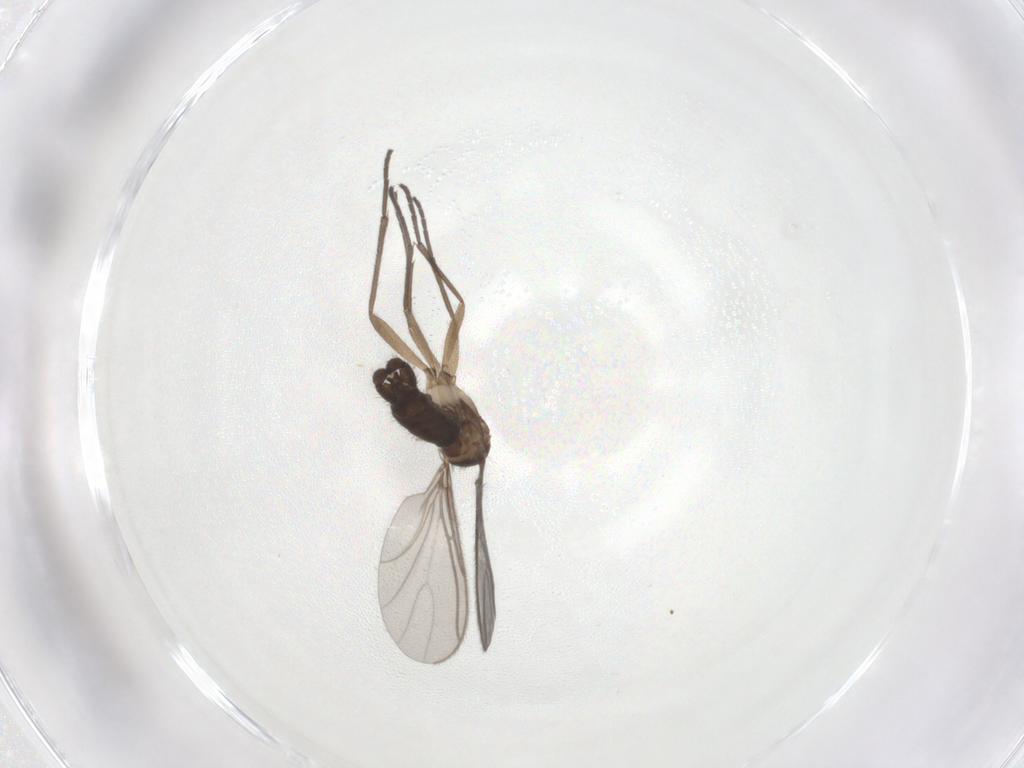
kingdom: Animalia
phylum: Arthropoda
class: Insecta
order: Diptera
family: Sciaridae
